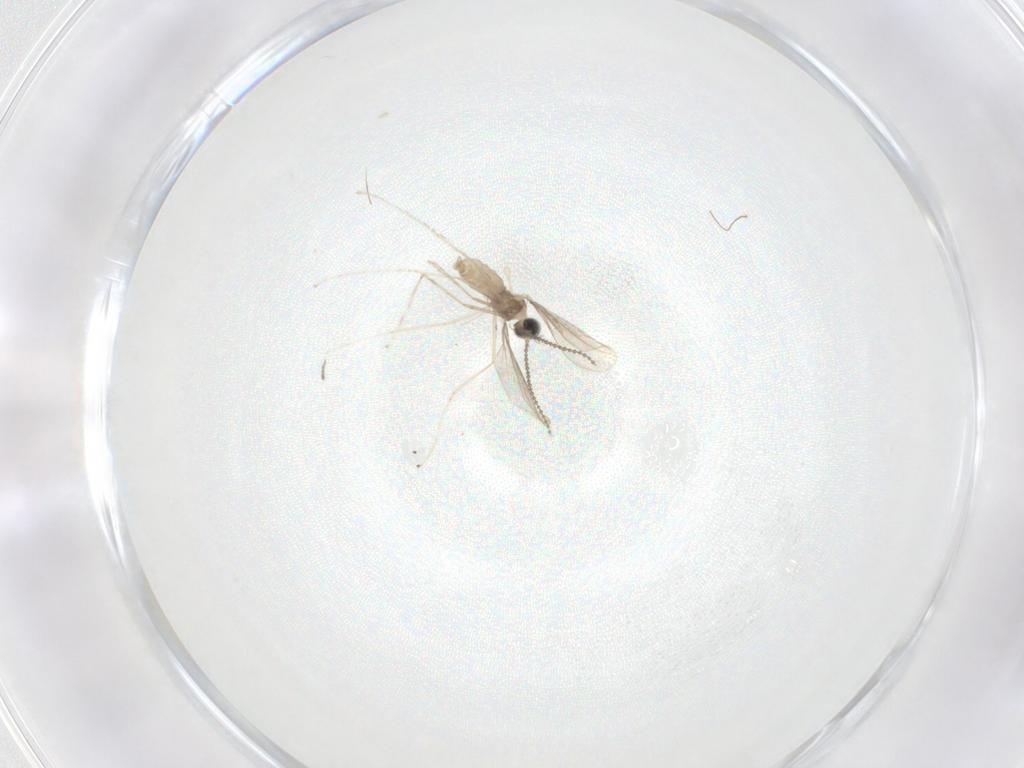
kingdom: Animalia
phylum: Arthropoda
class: Insecta
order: Diptera
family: Cecidomyiidae
